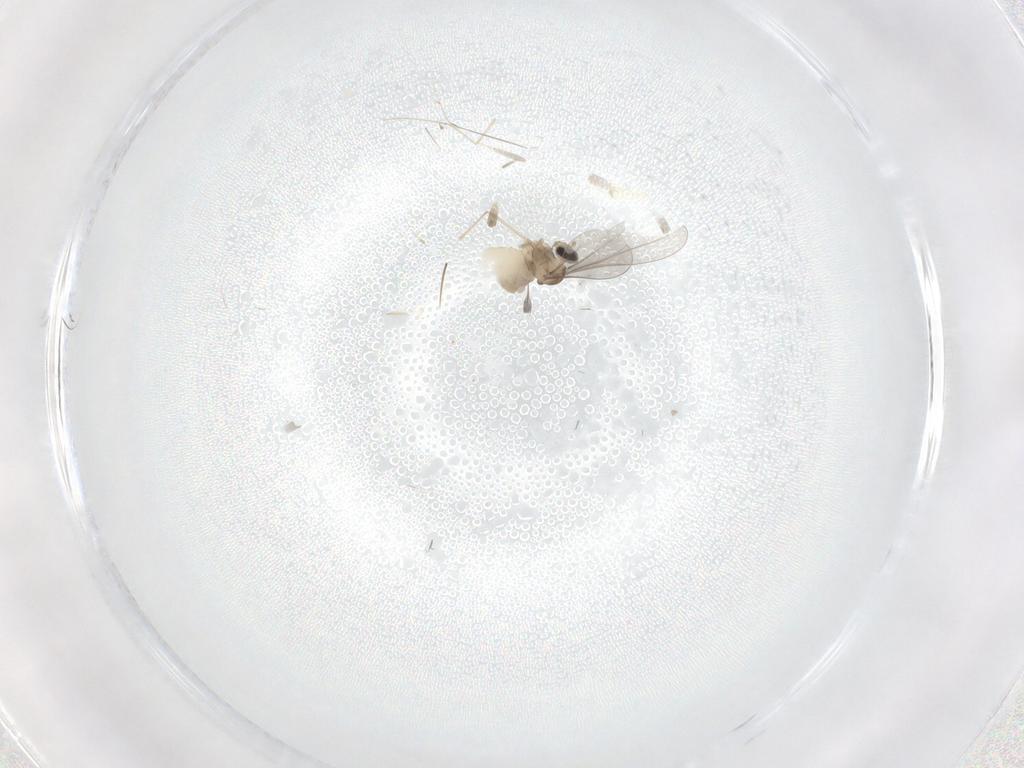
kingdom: Animalia
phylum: Arthropoda
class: Insecta
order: Diptera
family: Cecidomyiidae
